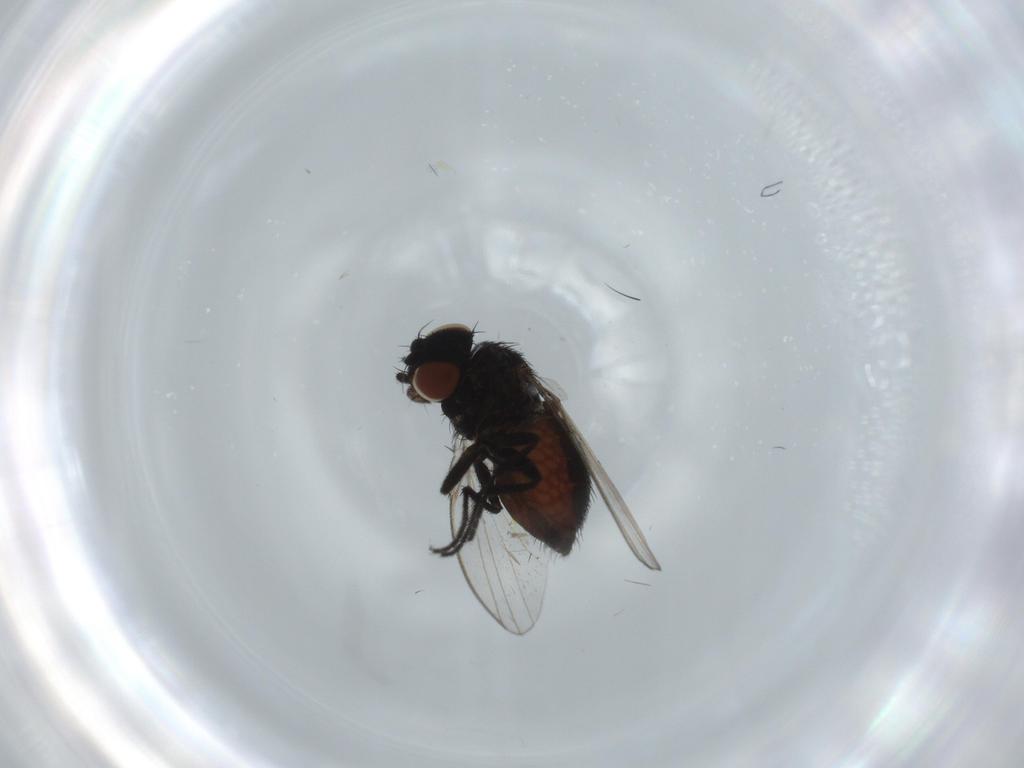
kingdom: Animalia
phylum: Arthropoda
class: Insecta
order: Diptera
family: Milichiidae
